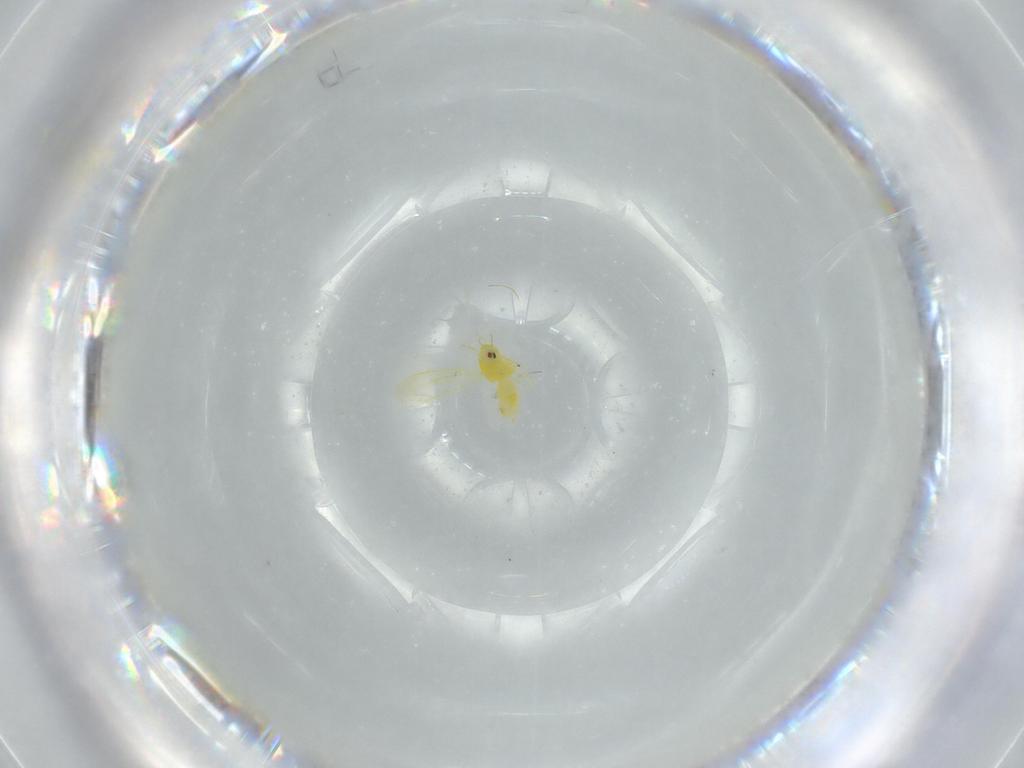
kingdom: Animalia
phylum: Arthropoda
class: Insecta
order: Hemiptera
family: Aleyrodidae
